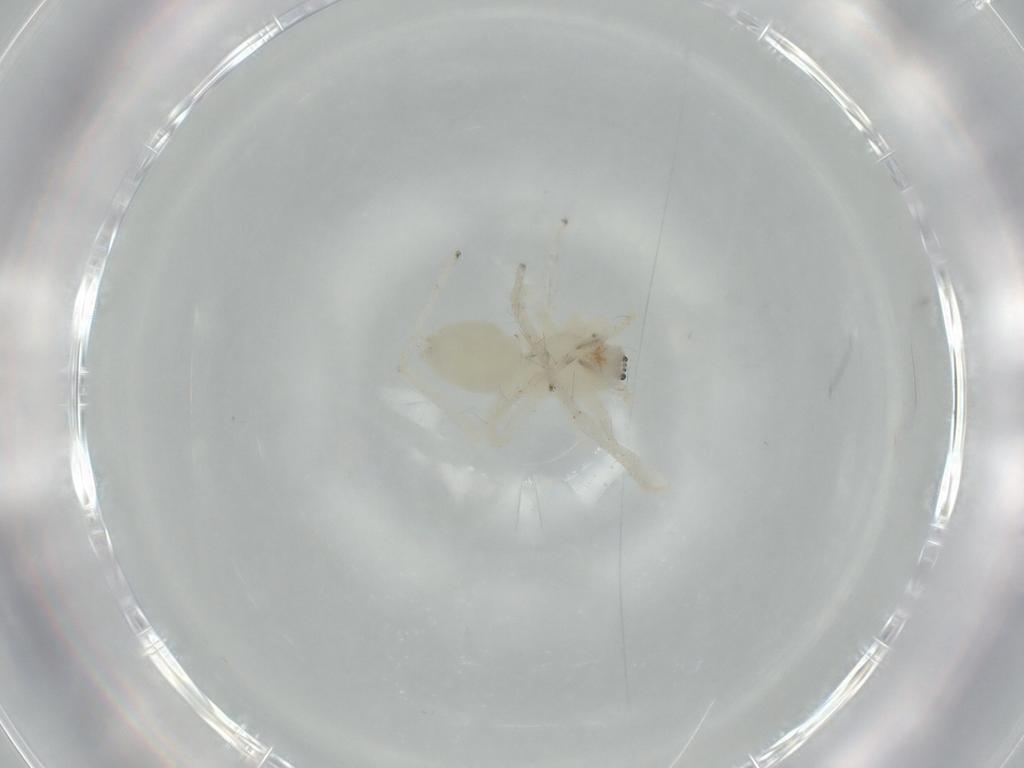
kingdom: Animalia
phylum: Arthropoda
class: Arachnida
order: Araneae
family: Anyphaenidae
